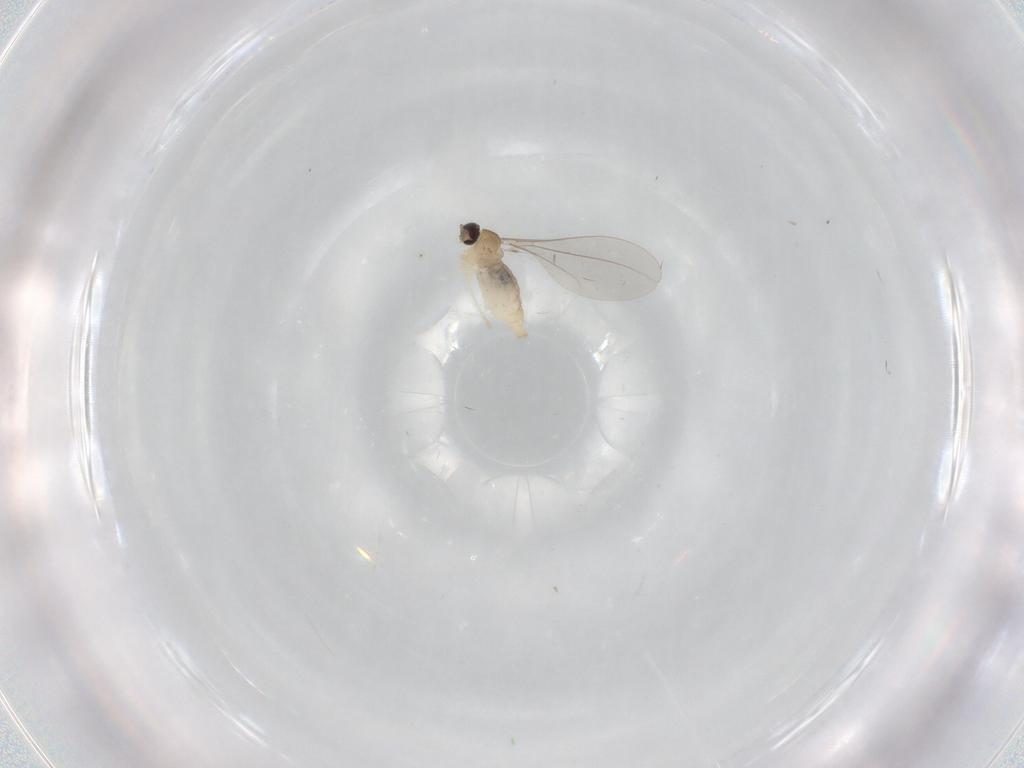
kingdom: Animalia
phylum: Arthropoda
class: Insecta
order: Diptera
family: Cecidomyiidae
